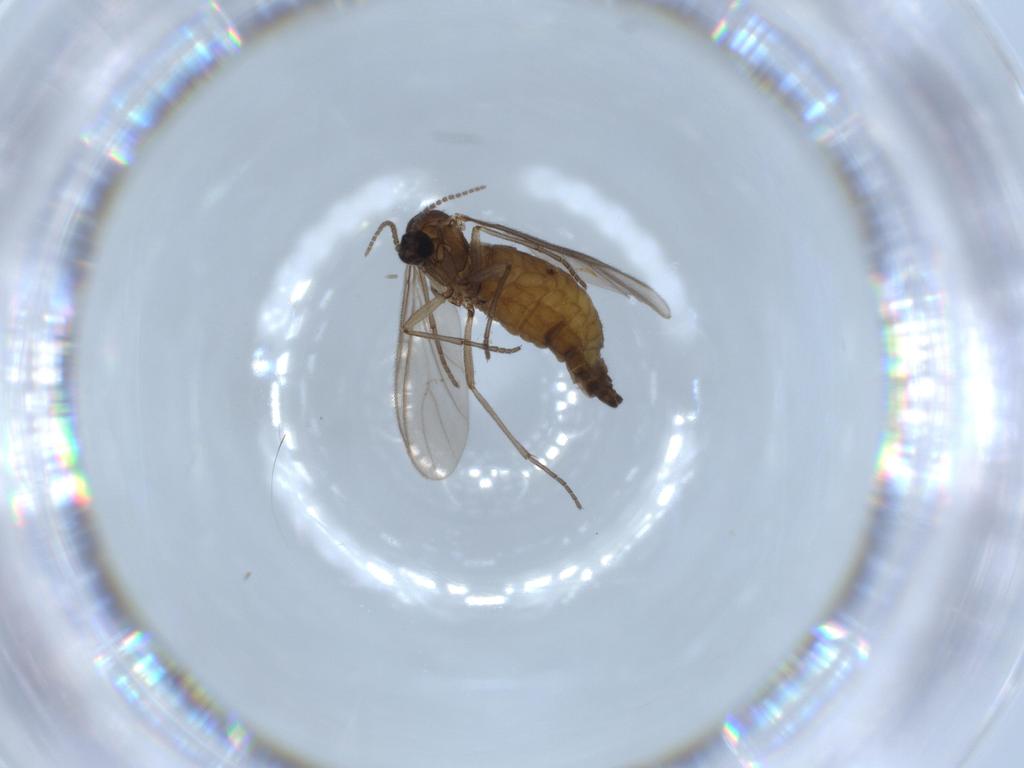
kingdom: Animalia
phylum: Arthropoda
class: Insecta
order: Diptera
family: Sciaridae
